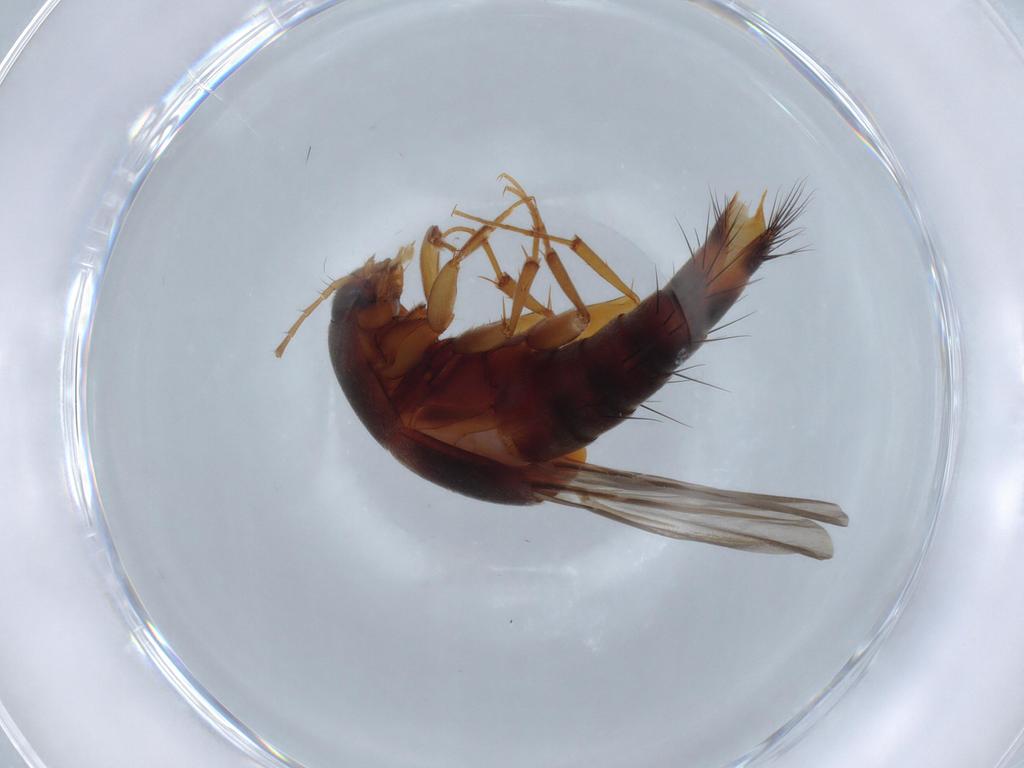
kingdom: Animalia
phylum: Arthropoda
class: Insecta
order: Coleoptera
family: Staphylinidae
